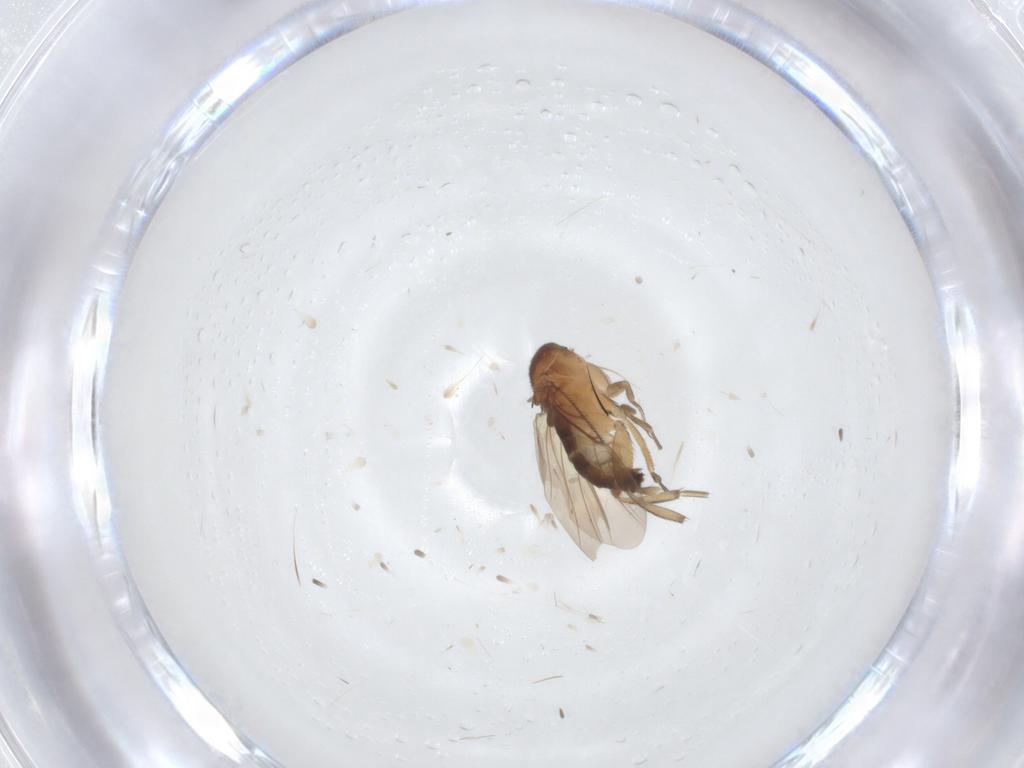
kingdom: Animalia
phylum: Arthropoda
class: Insecta
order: Diptera
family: Phoridae
